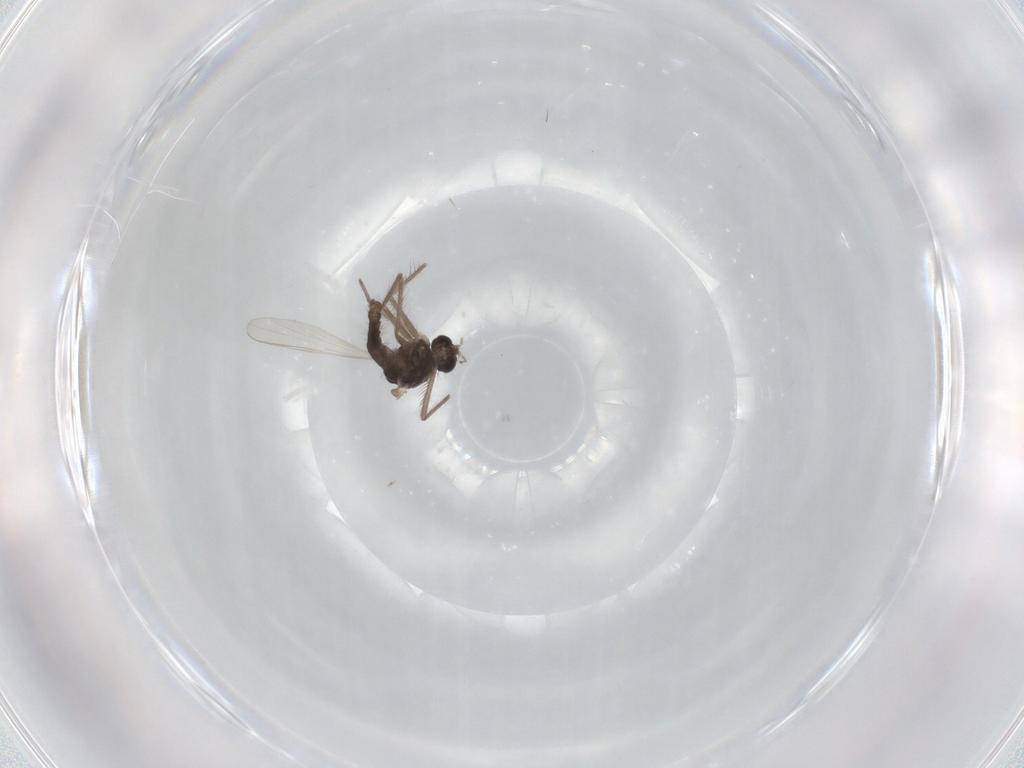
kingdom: Animalia
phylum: Arthropoda
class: Insecta
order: Diptera
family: Chironomidae
